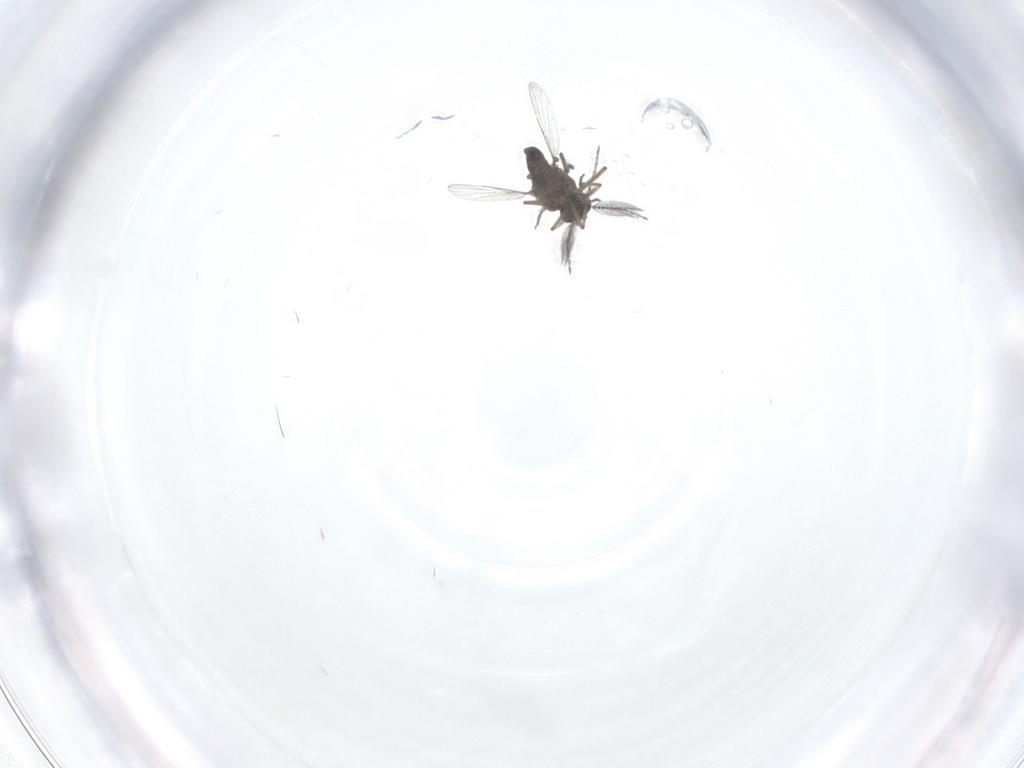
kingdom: Animalia
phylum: Arthropoda
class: Insecta
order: Diptera
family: Ceratopogonidae
